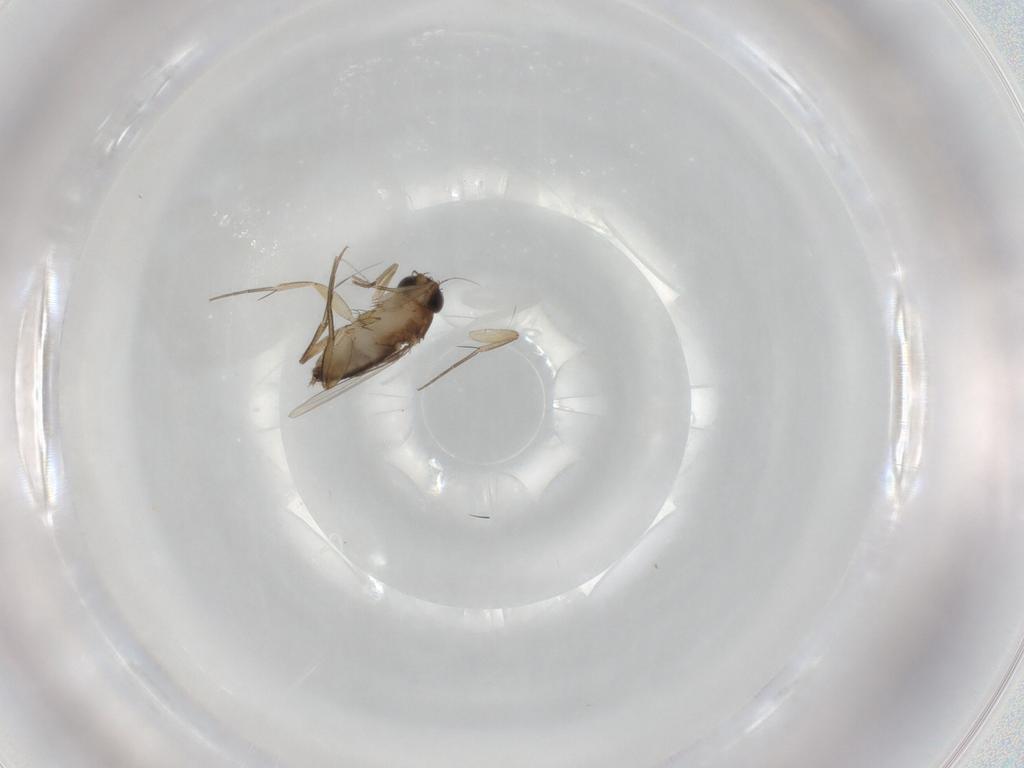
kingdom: Animalia
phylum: Arthropoda
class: Insecta
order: Diptera
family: Phoridae
